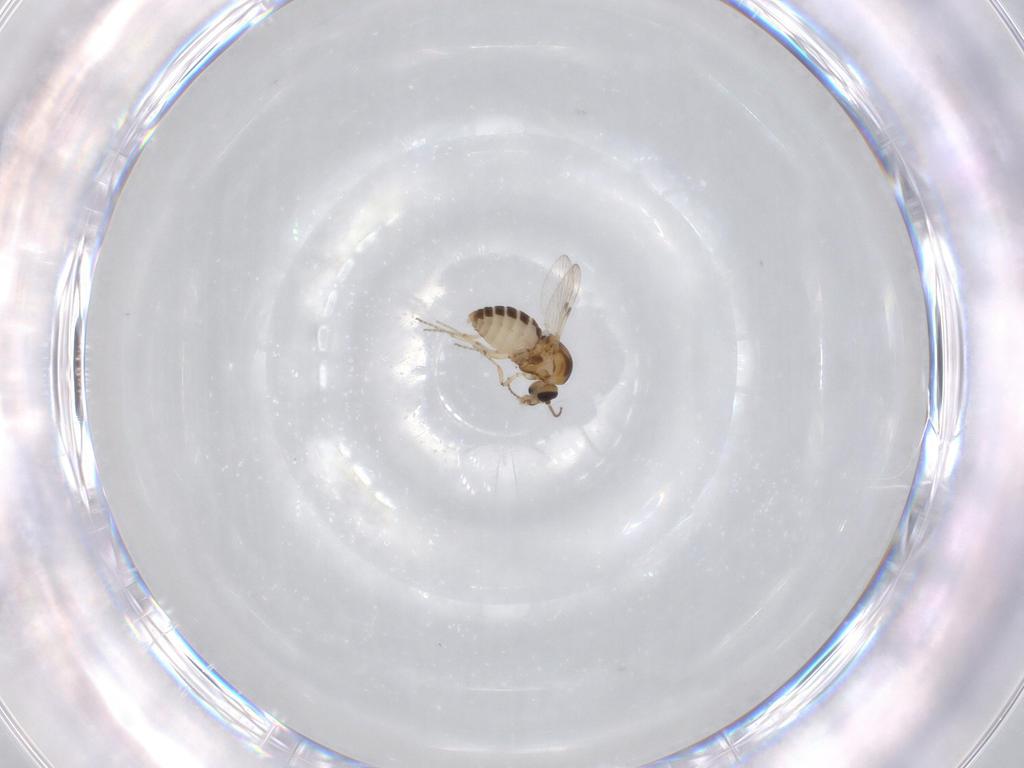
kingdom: Animalia
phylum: Arthropoda
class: Insecta
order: Diptera
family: Ceratopogonidae
